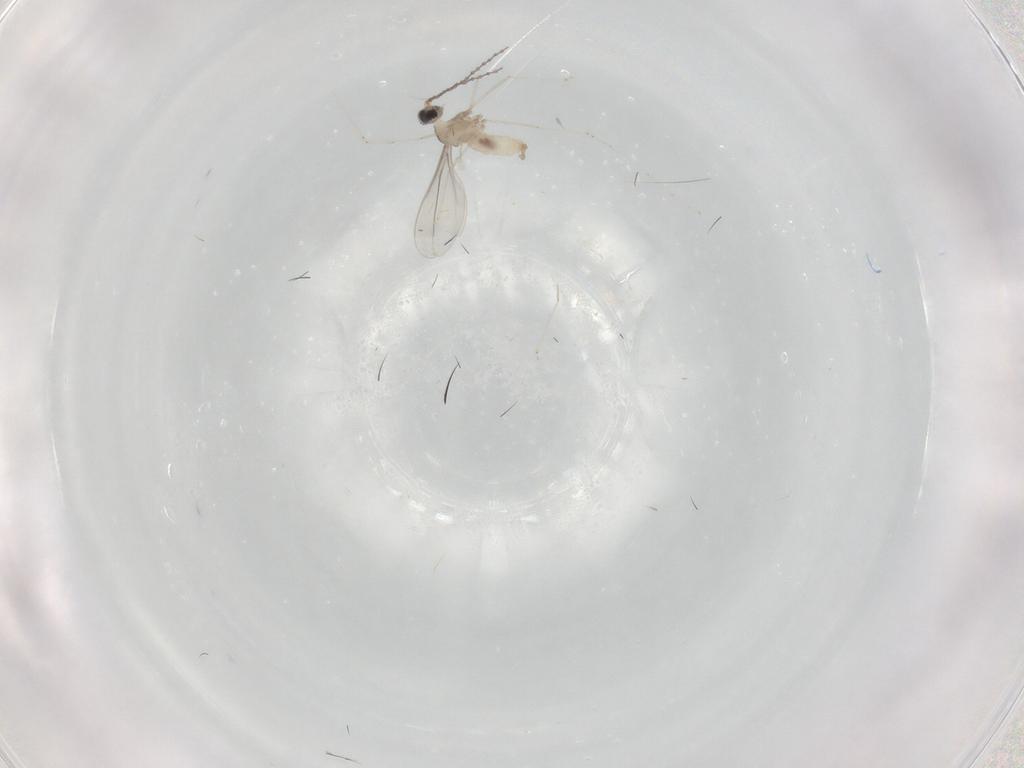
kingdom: Animalia
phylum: Arthropoda
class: Insecta
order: Diptera
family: Cecidomyiidae
